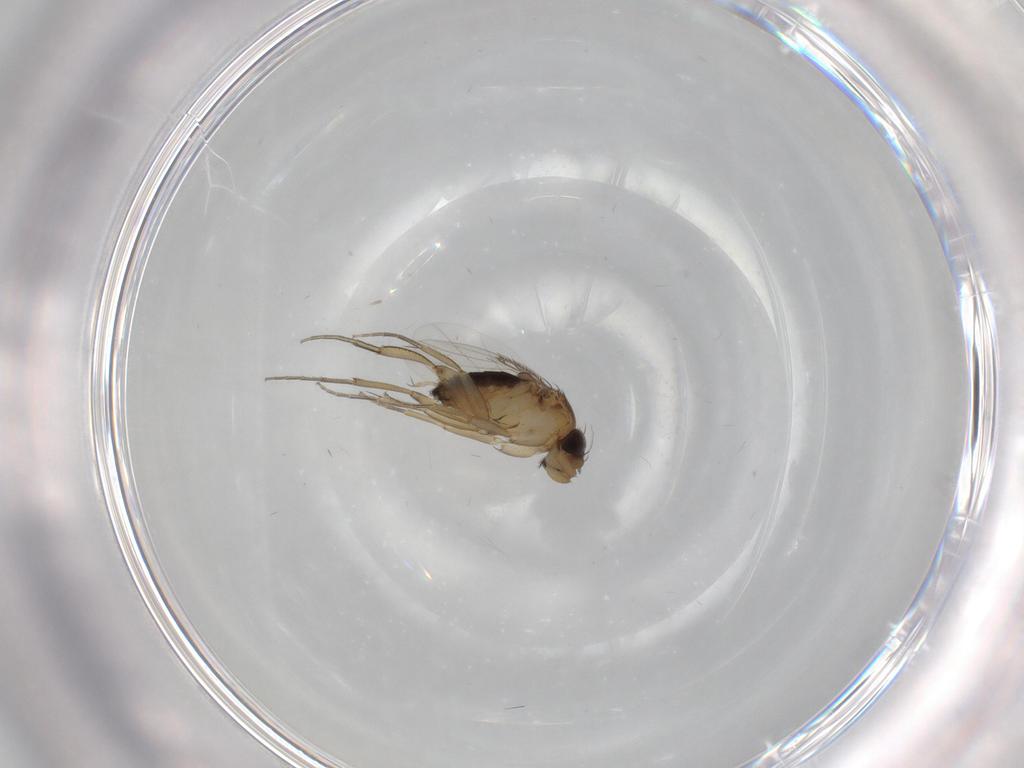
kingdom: Animalia
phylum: Arthropoda
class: Insecta
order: Diptera
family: Psychodidae
